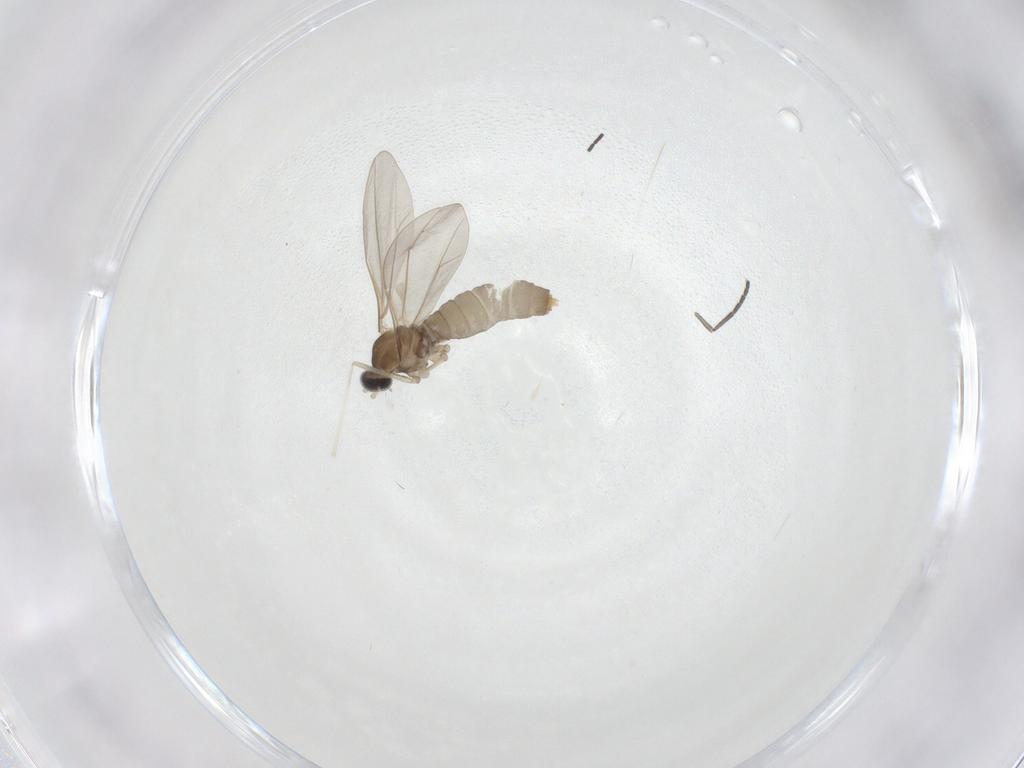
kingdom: Animalia
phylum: Arthropoda
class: Insecta
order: Diptera
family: Cecidomyiidae
